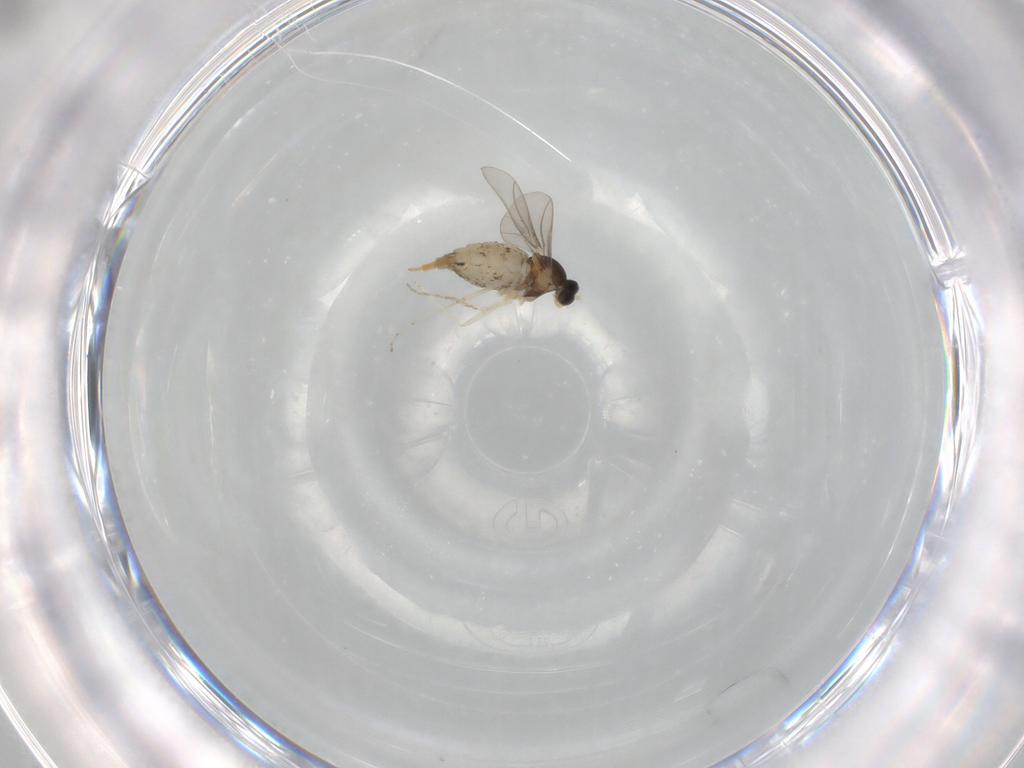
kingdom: Animalia
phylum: Arthropoda
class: Insecta
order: Diptera
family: Cecidomyiidae
